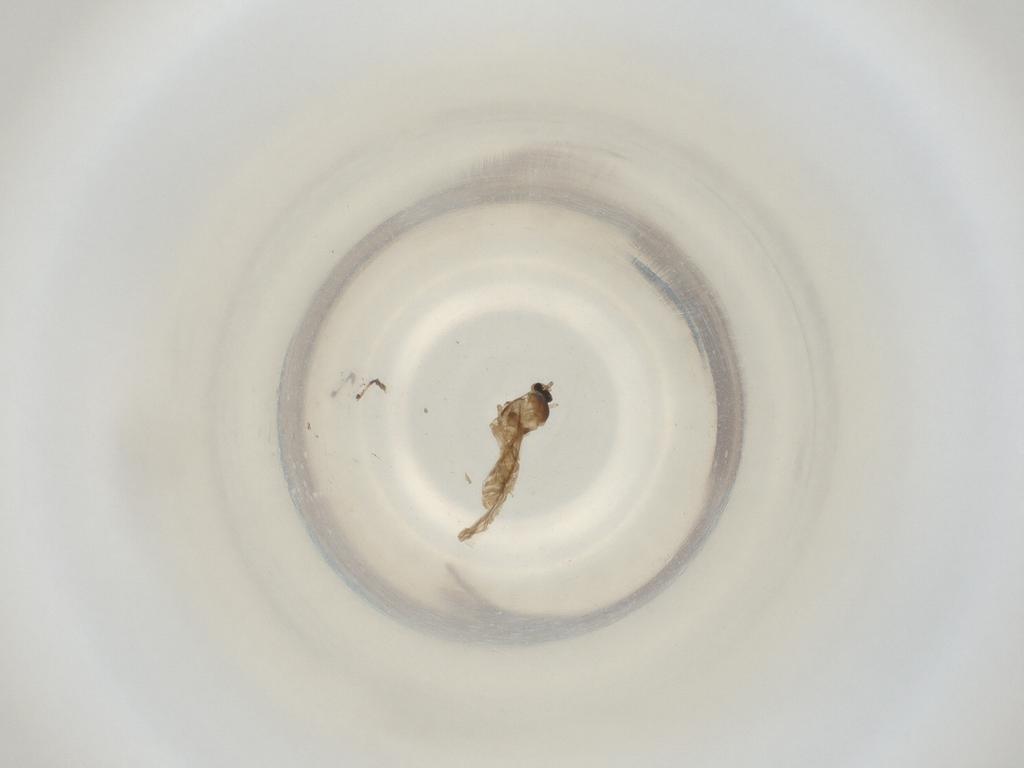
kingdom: Animalia
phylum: Arthropoda
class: Insecta
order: Diptera
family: Cecidomyiidae
